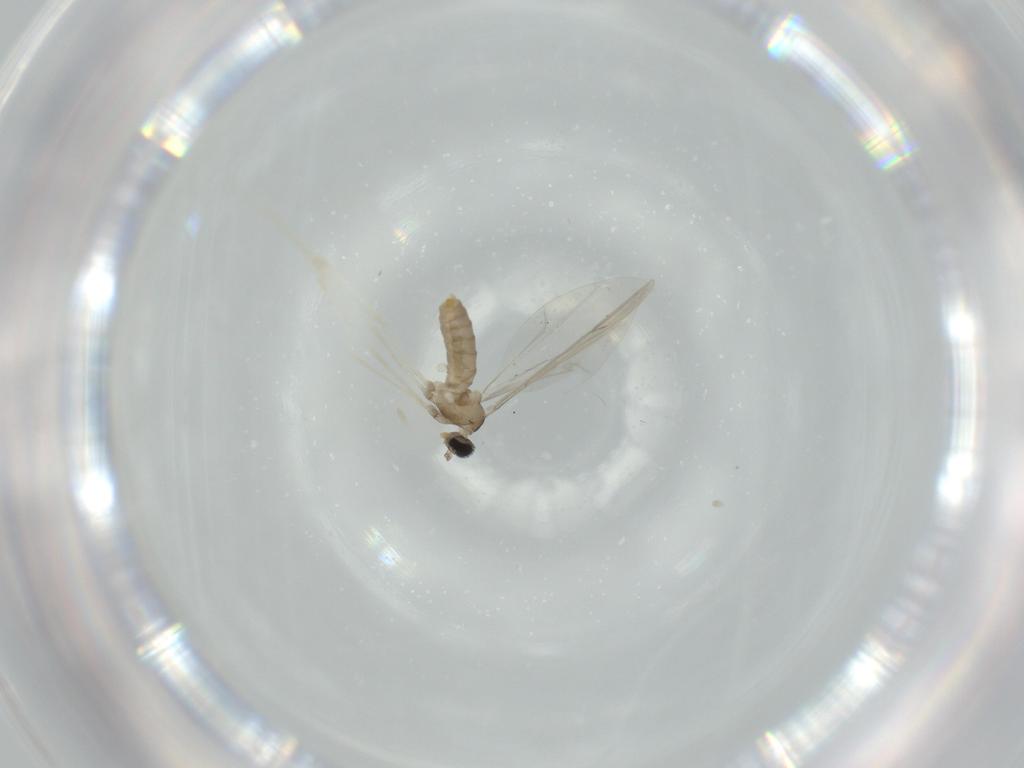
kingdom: Animalia
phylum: Arthropoda
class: Insecta
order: Diptera
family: Cecidomyiidae
